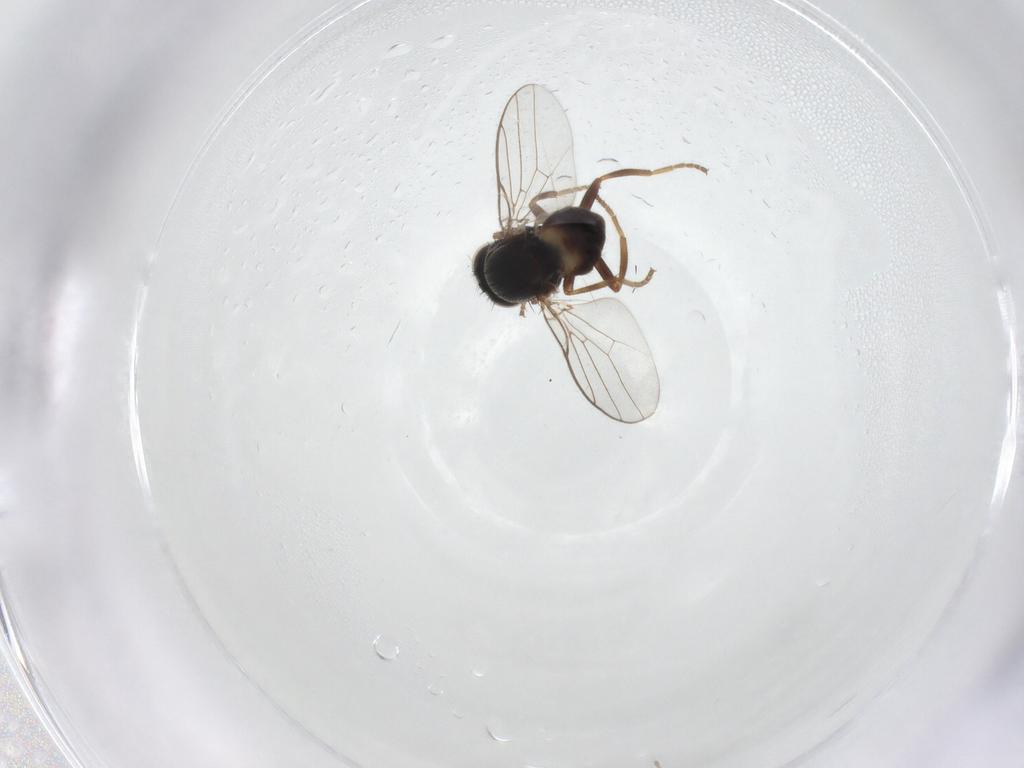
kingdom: Animalia
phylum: Arthropoda
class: Insecta
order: Diptera
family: Chloropidae
